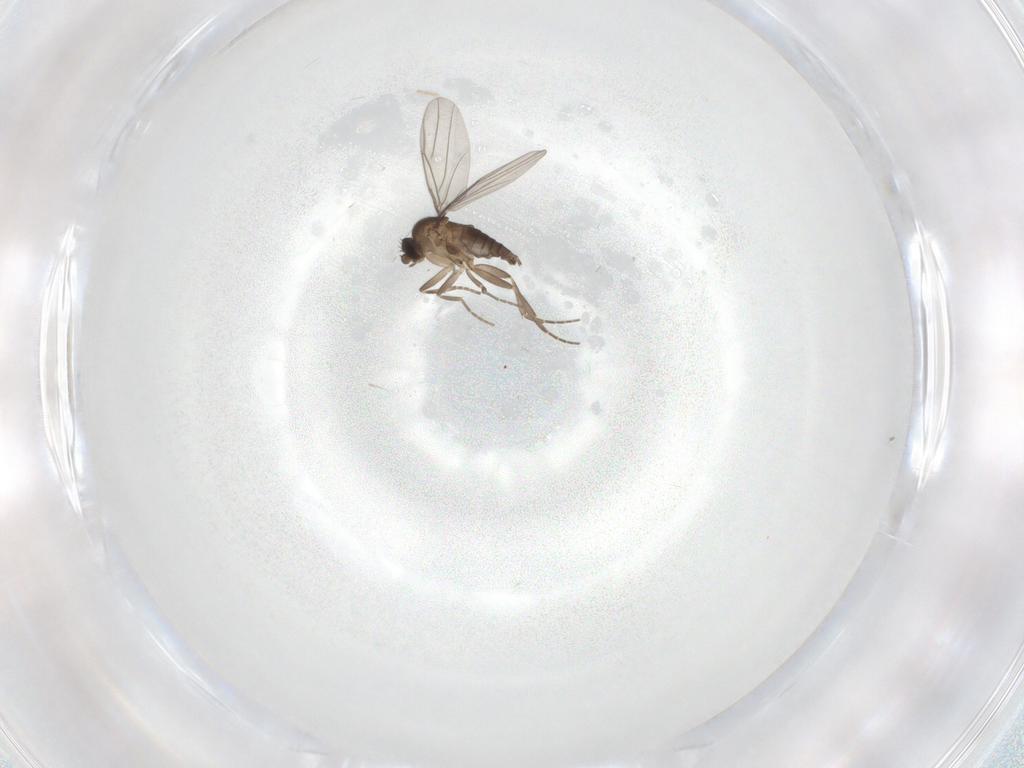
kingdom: Animalia
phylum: Arthropoda
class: Insecta
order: Diptera
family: Phoridae
